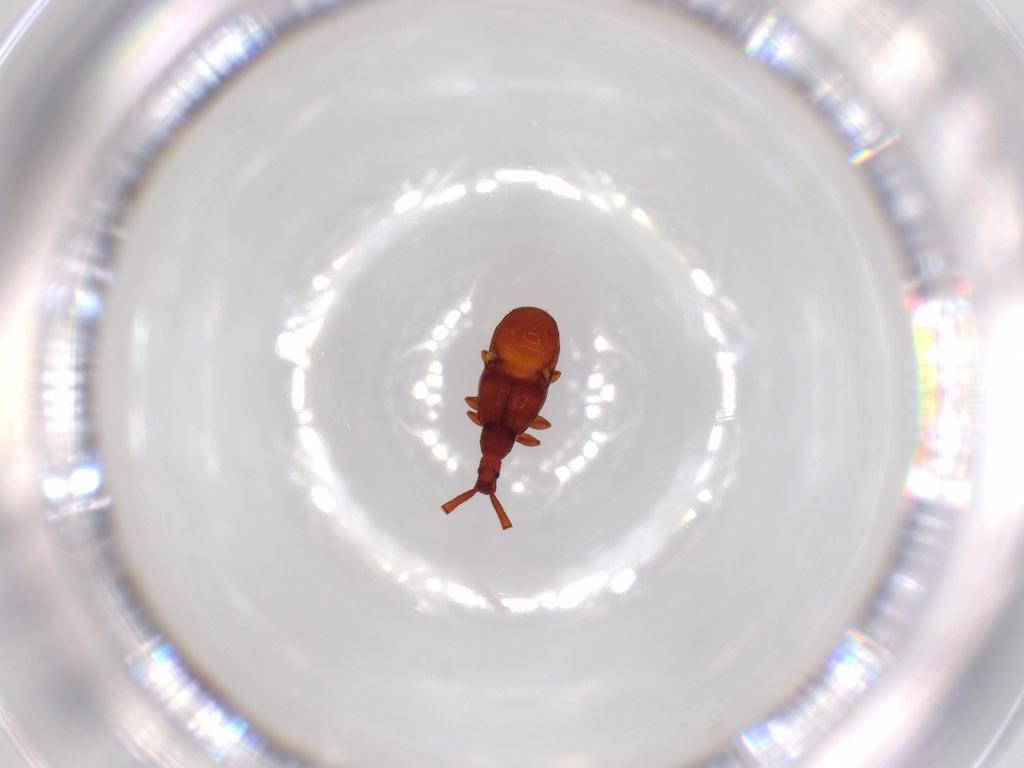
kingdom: Animalia
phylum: Arthropoda
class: Insecta
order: Coleoptera
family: Staphylinidae
